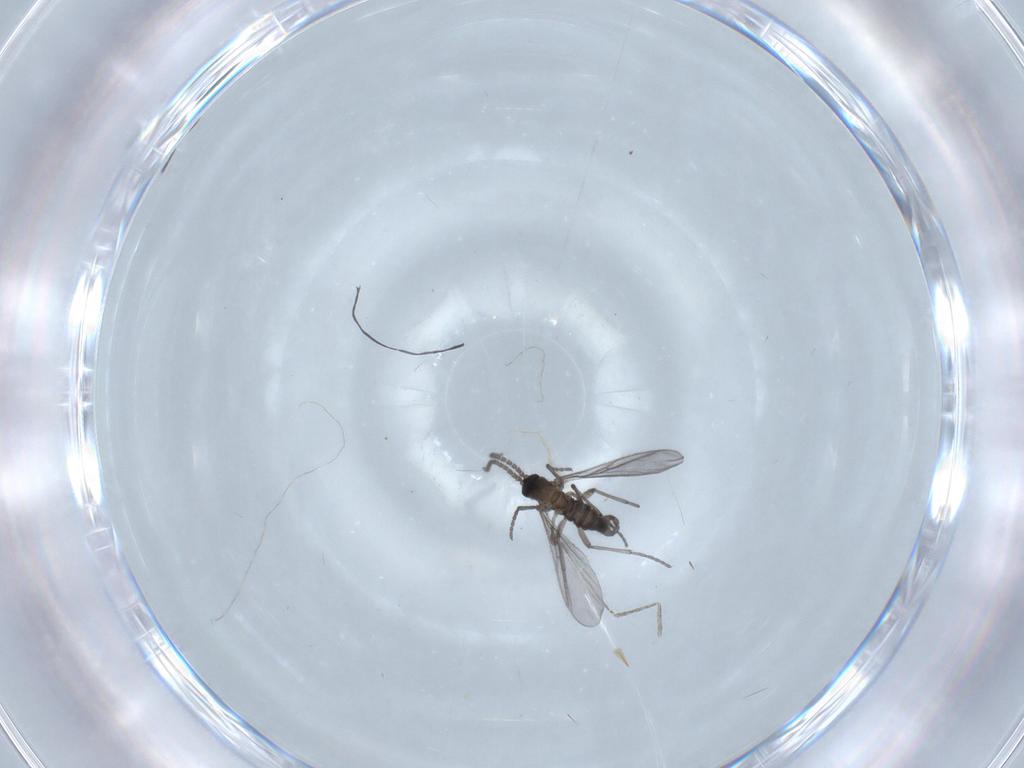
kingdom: Animalia
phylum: Arthropoda
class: Insecta
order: Diptera
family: Sciaridae
